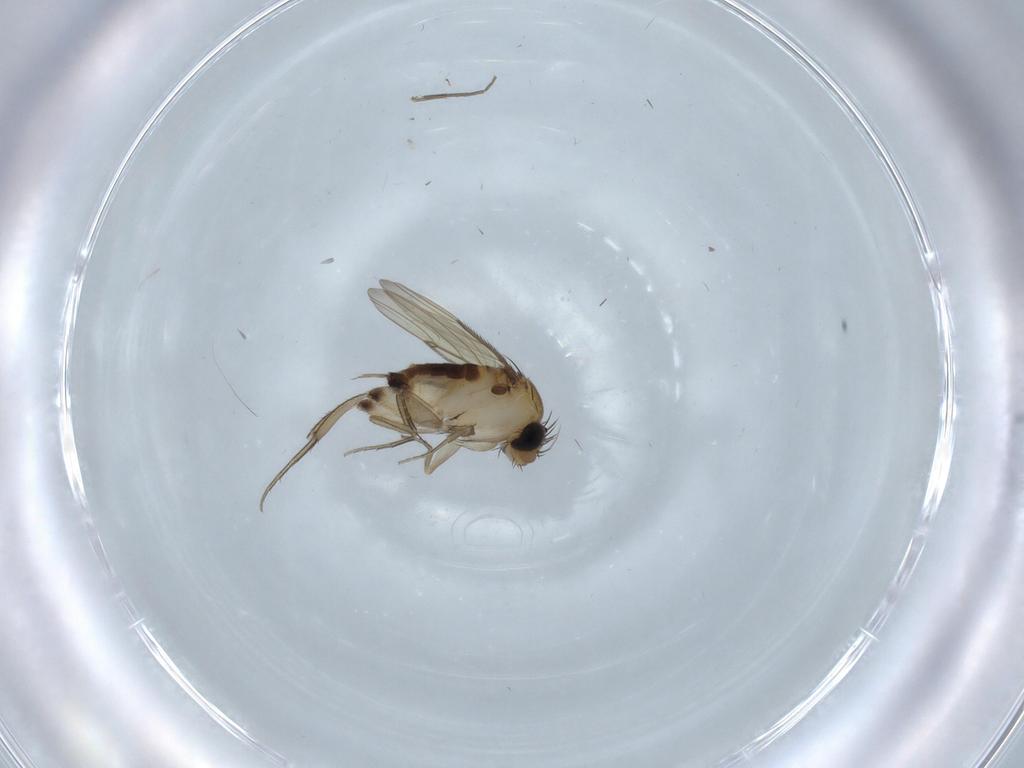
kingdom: Animalia
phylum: Arthropoda
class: Insecta
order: Diptera
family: Phoridae
